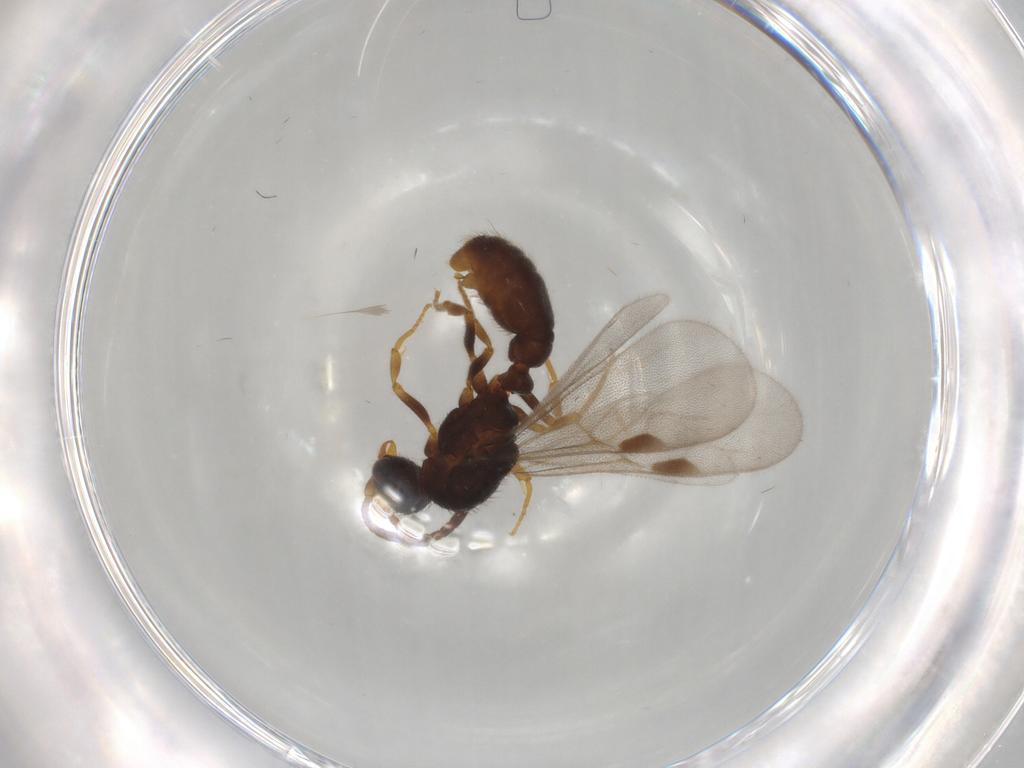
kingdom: Animalia
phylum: Arthropoda
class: Insecta
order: Hymenoptera
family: Formicidae
